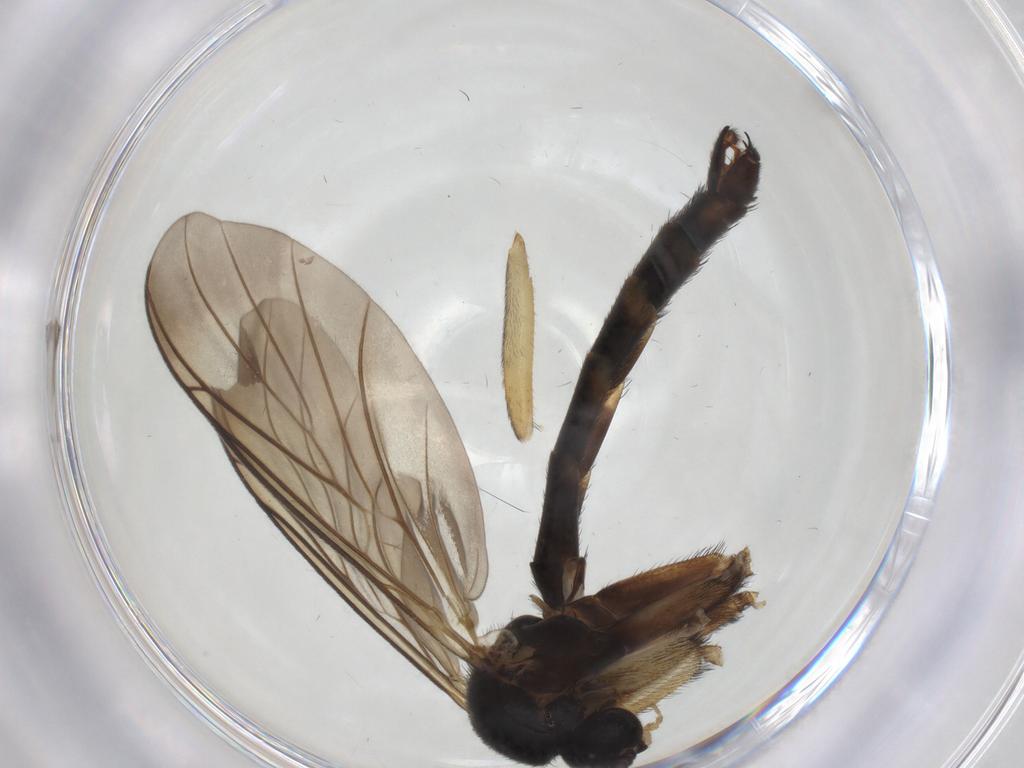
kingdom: Animalia
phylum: Arthropoda
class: Insecta
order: Diptera
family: Keroplatidae
